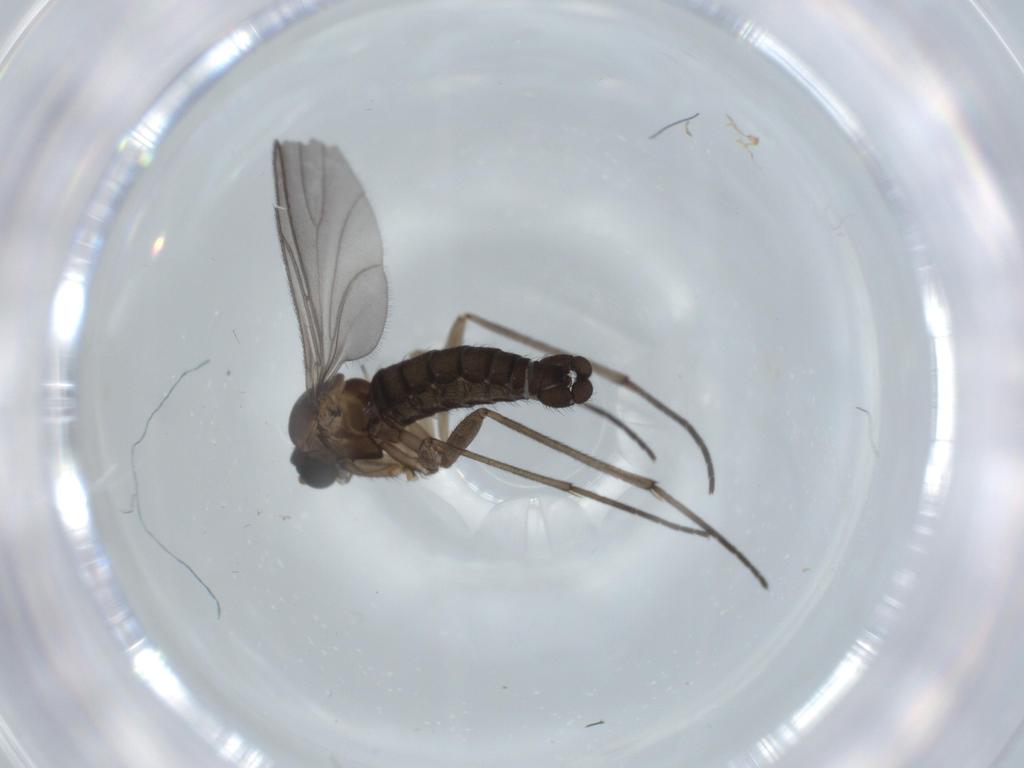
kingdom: Animalia
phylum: Arthropoda
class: Insecta
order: Diptera
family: Sciaridae
